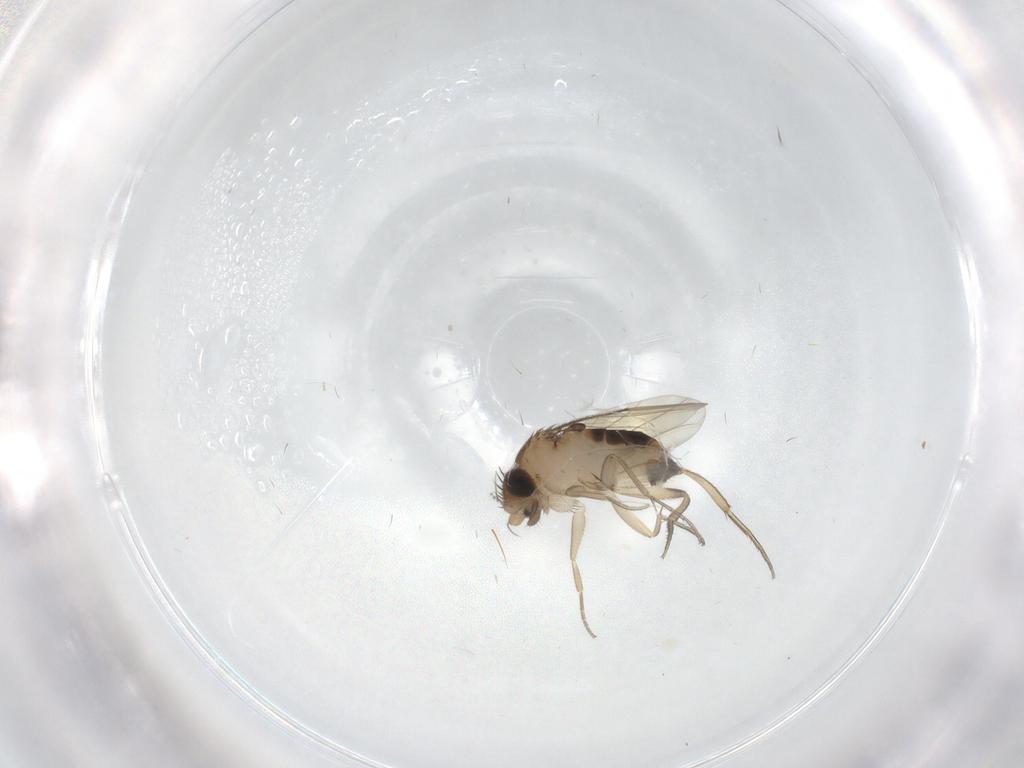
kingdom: Animalia
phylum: Arthropoda
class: Insecta
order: Diptera
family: Phoridae
